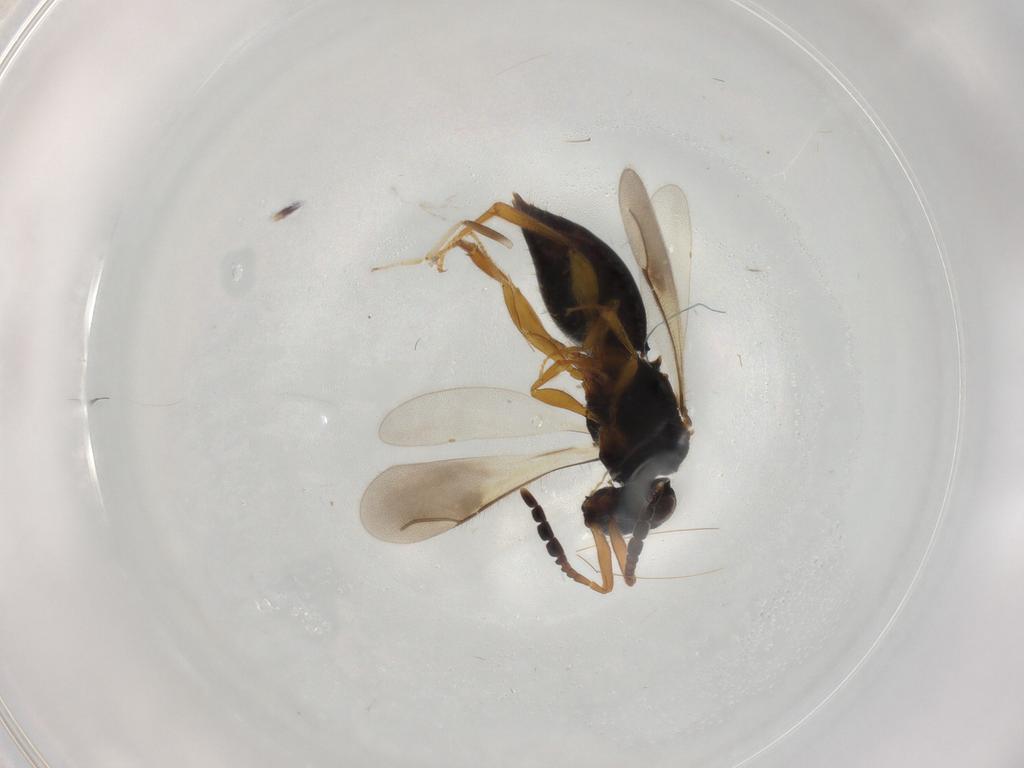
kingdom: Animalia
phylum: Arthropoda
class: Insecta
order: Hymenoptera
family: Ceraphronidae
